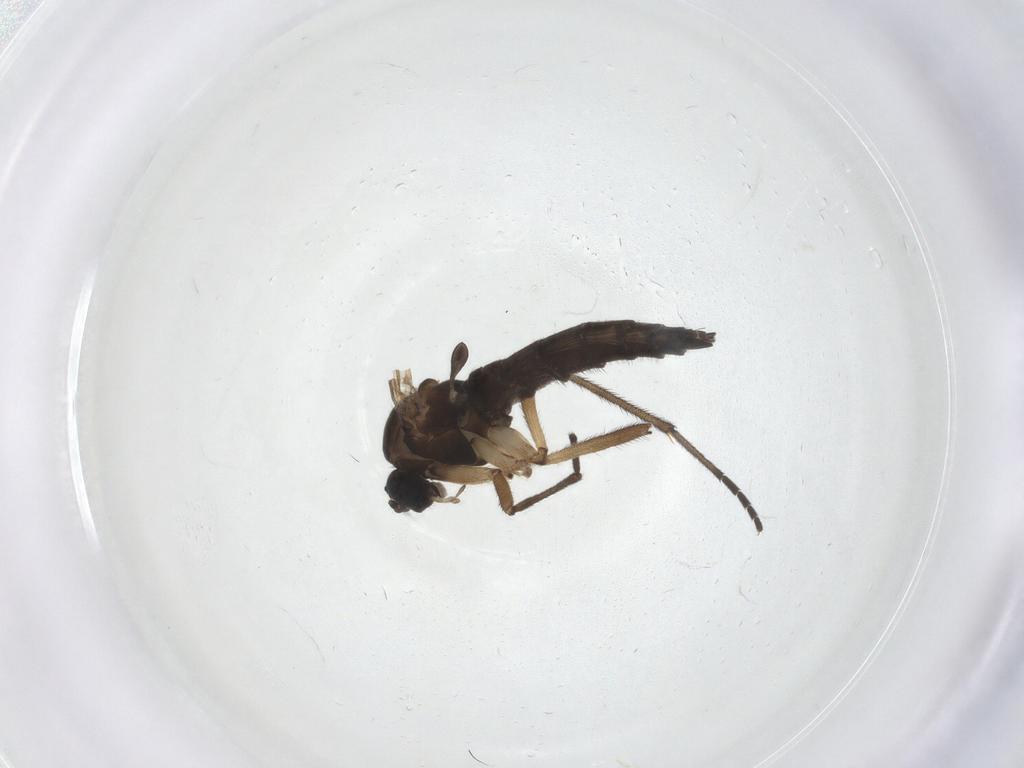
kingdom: Animalia
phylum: Arthropoda
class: Insecta
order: Diptera
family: Sciaridae
